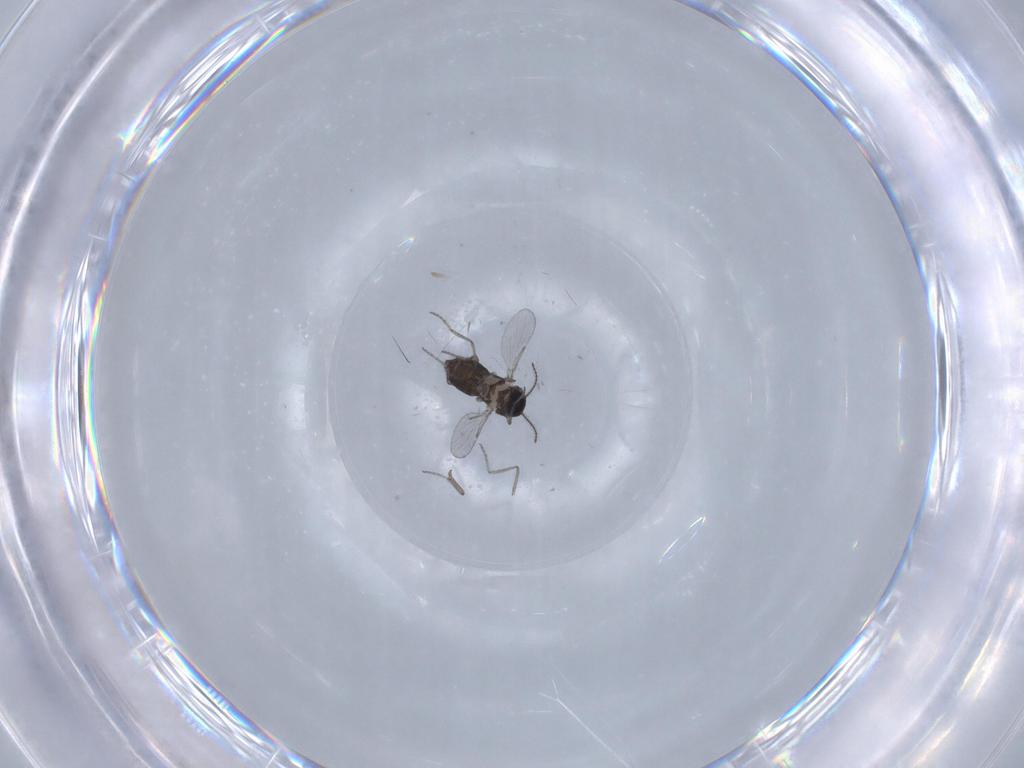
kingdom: Animalia
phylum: Arthropoda
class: Insecta
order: Diptera
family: Ceratopogonidae
